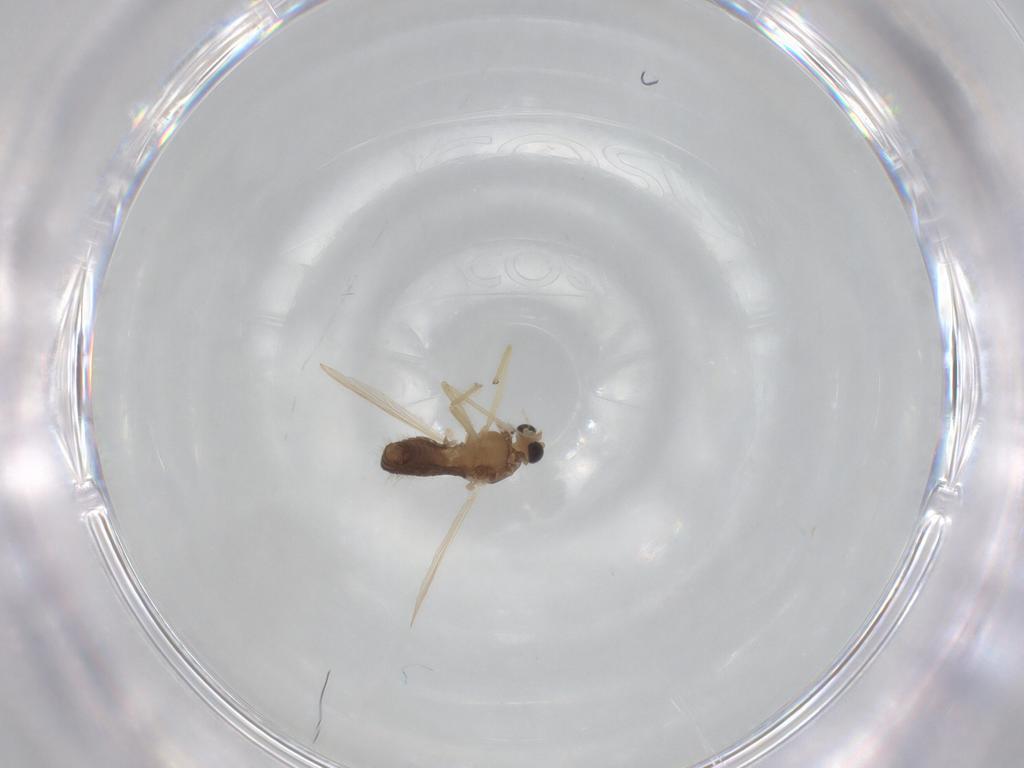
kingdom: Animalia
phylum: Arthropoda
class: Insecta
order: Diptera
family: Chironomidae
